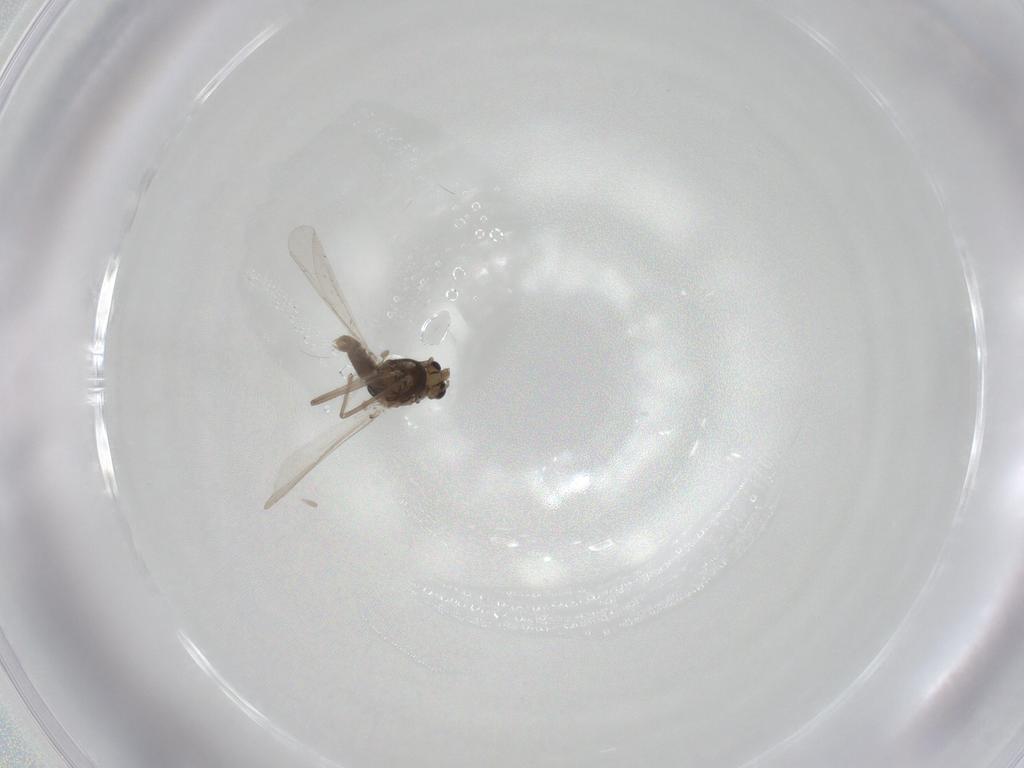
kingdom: Animalia
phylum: Arthropoda
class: Insecta
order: Diptera
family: Chironomidae
